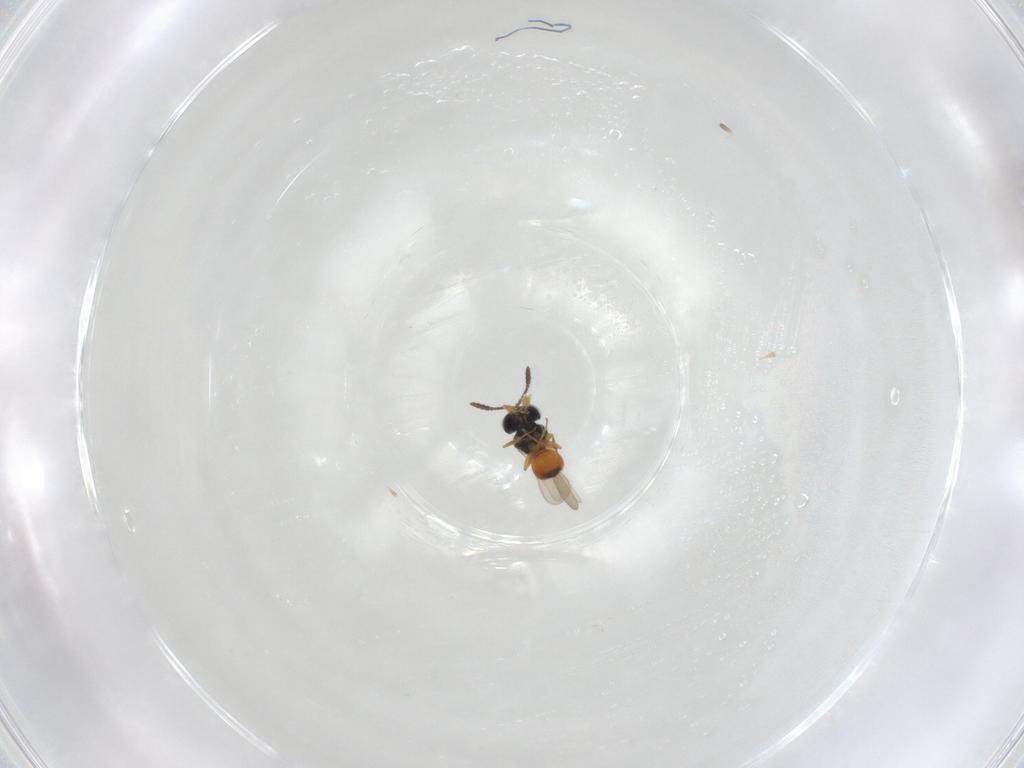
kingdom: Animalia
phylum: Arthropoda
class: Insecta
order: Hymenoptera
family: Scelionidae
